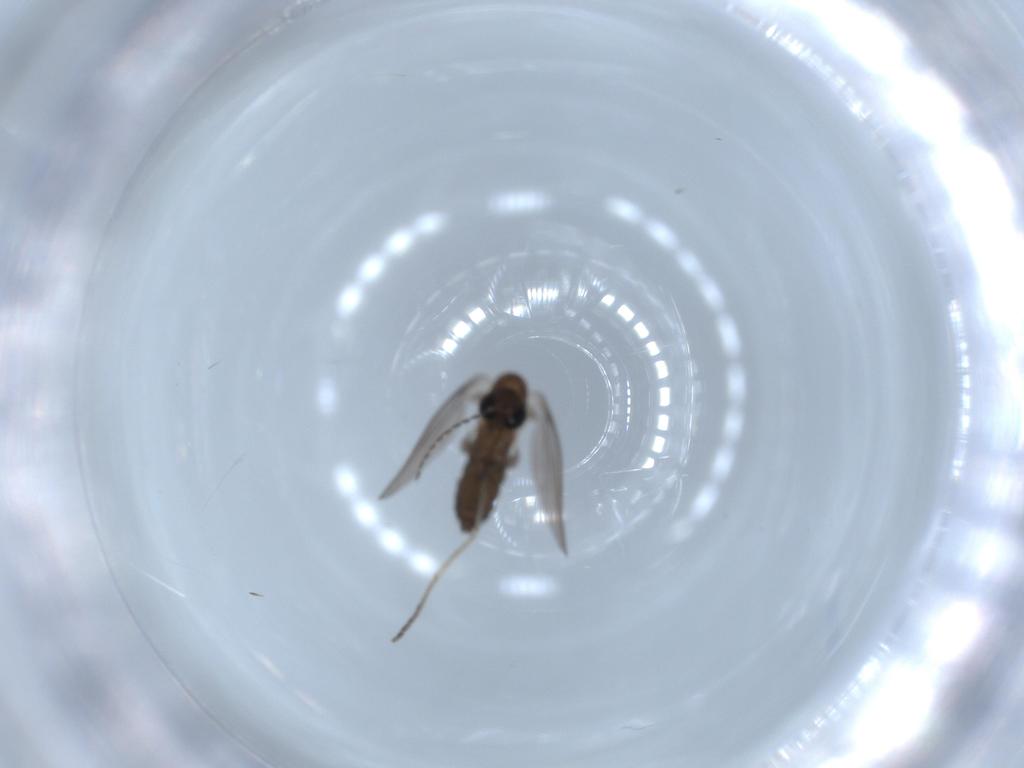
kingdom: Animalia
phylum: Arthropoda
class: Insecta
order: Diptera
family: Psychodidae
